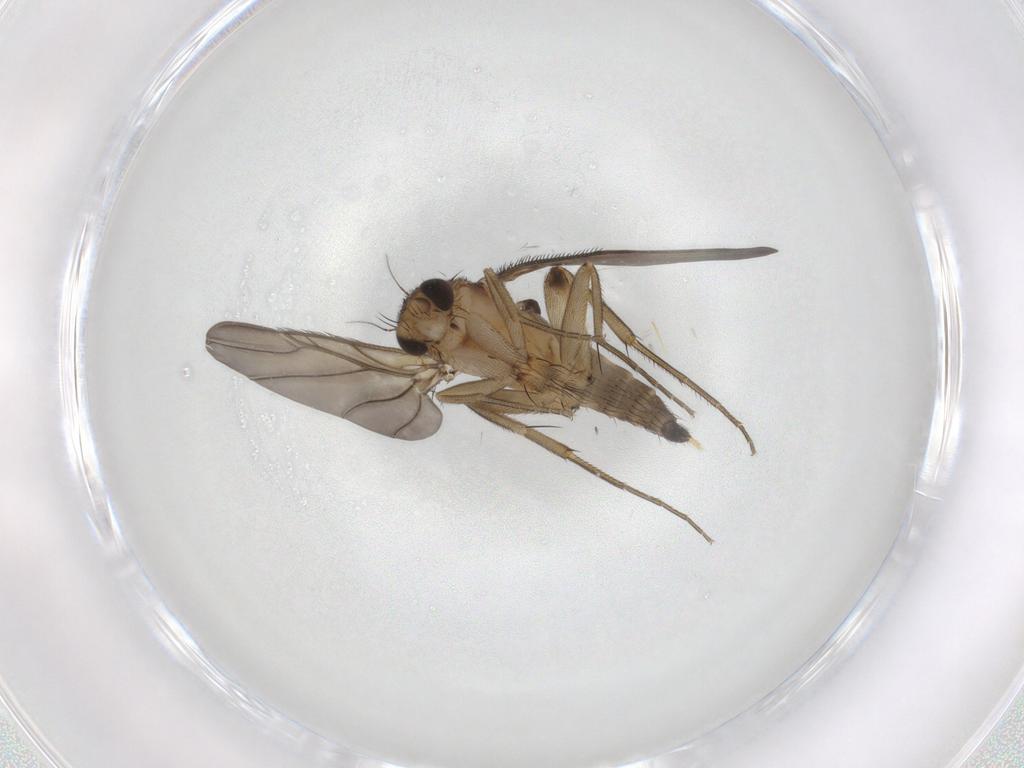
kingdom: Animalia
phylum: Arthropoda
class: Insecta
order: Diptera
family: Phoridae
